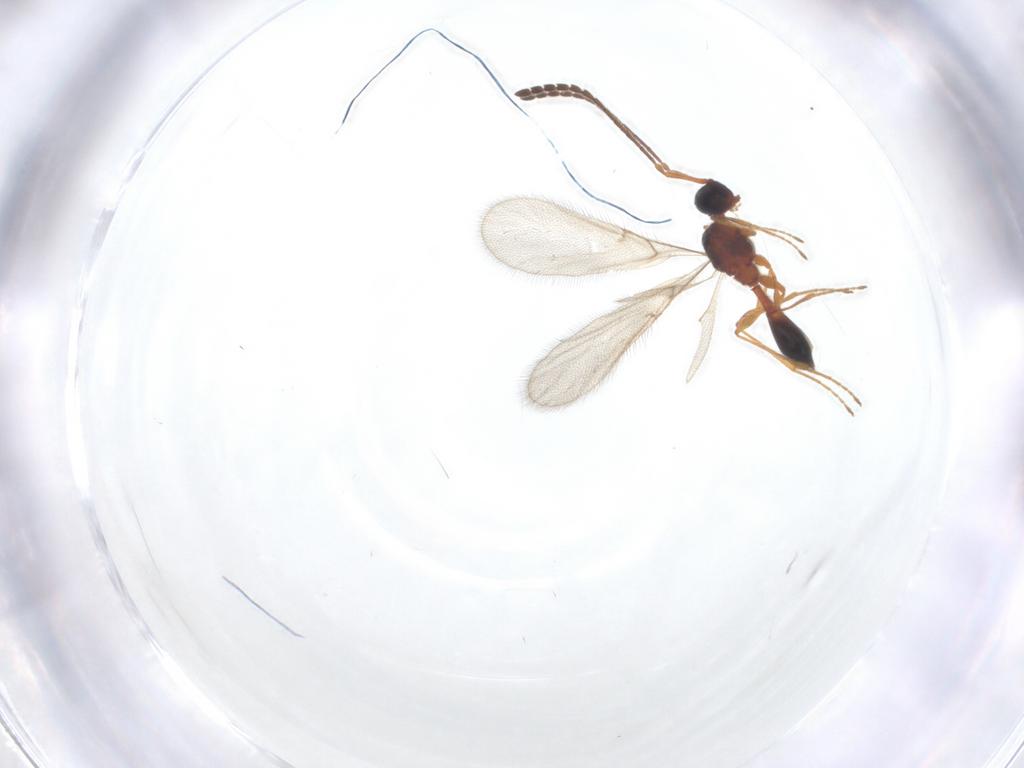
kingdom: Animalia
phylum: Arthropoda
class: Insecta
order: Hymenoptera
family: Diapriidae
